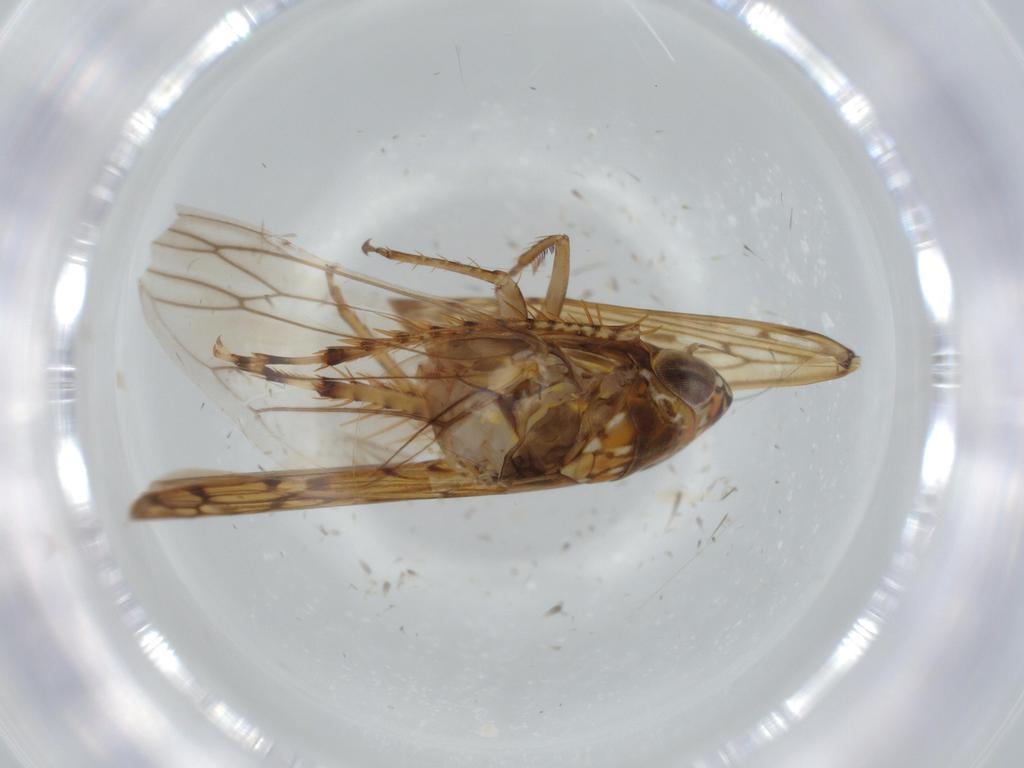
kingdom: Animalia
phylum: Arthropoda
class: Insecta
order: Hemiptera
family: Cicadellidae
